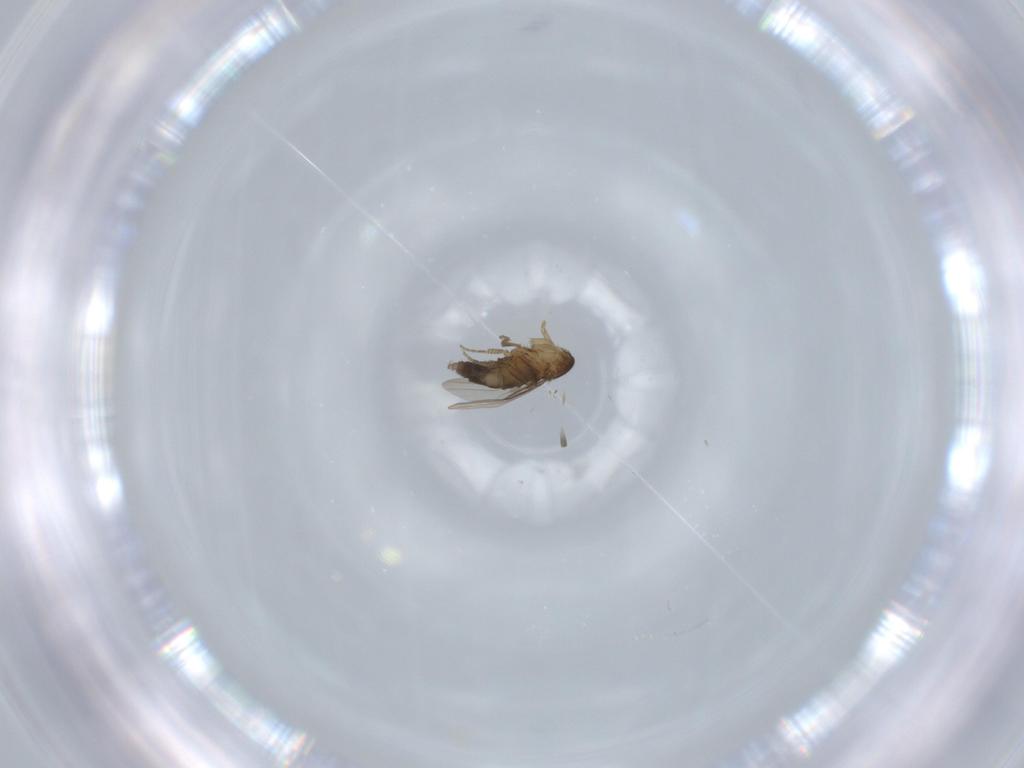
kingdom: Animalia
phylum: Arthropoda
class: Insecta
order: Diptera
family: Phoridae
